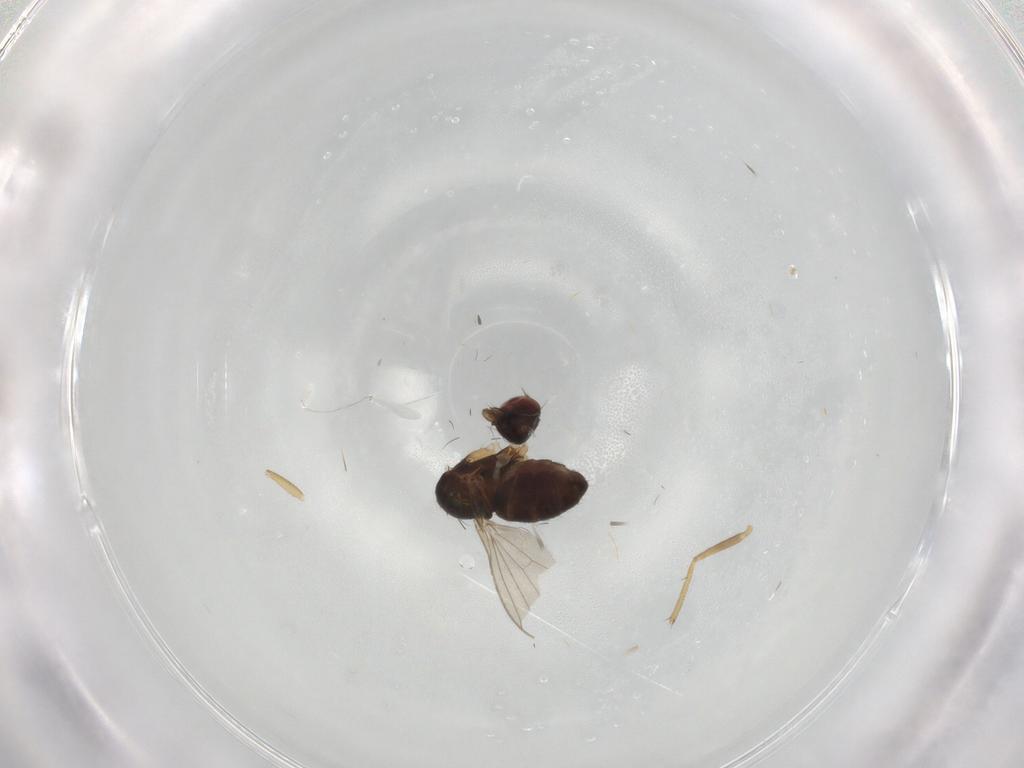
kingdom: Animalia
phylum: Arthropoda
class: Insecta
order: Diptera
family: Dolichopodidae
